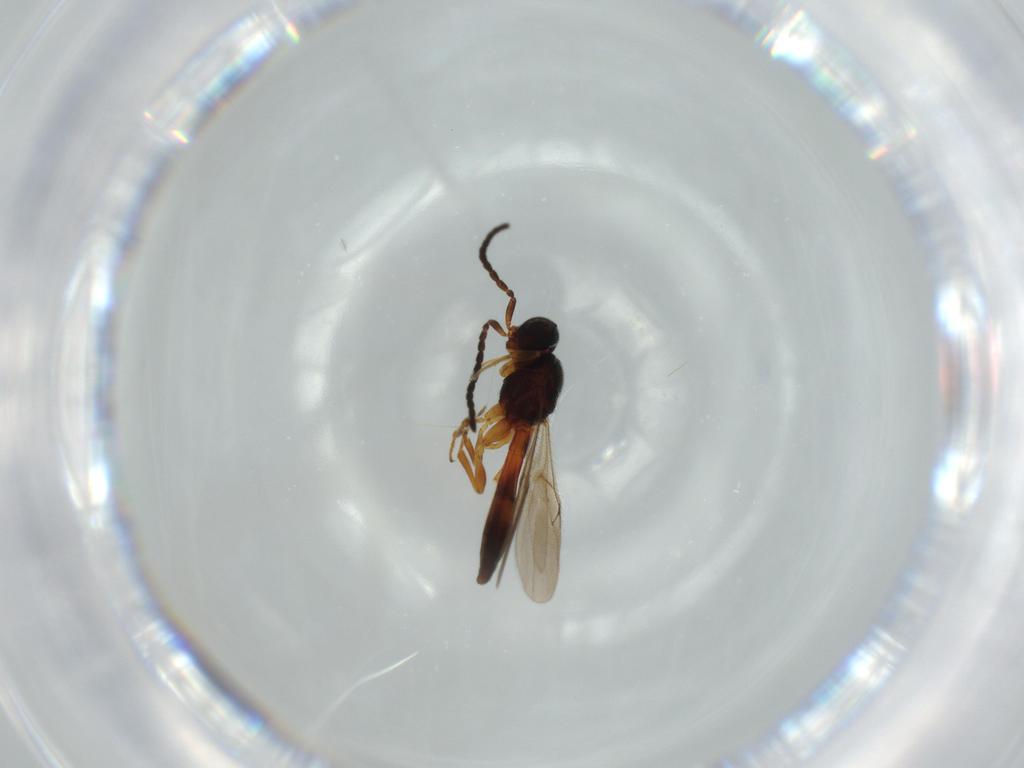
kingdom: Animalia
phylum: Arthropoda
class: Insecta
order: Hymenoptera
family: Scelionidae
